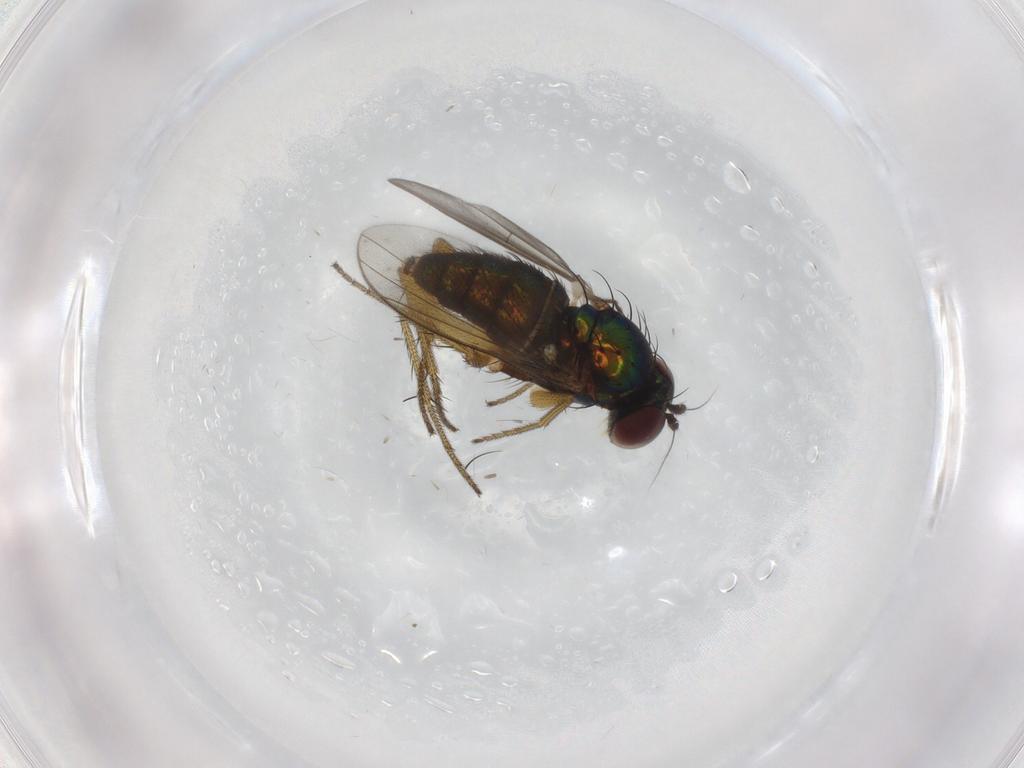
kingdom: Animalia
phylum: Arthropoda
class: Insecta
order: Diptera
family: Dolichopodidae
